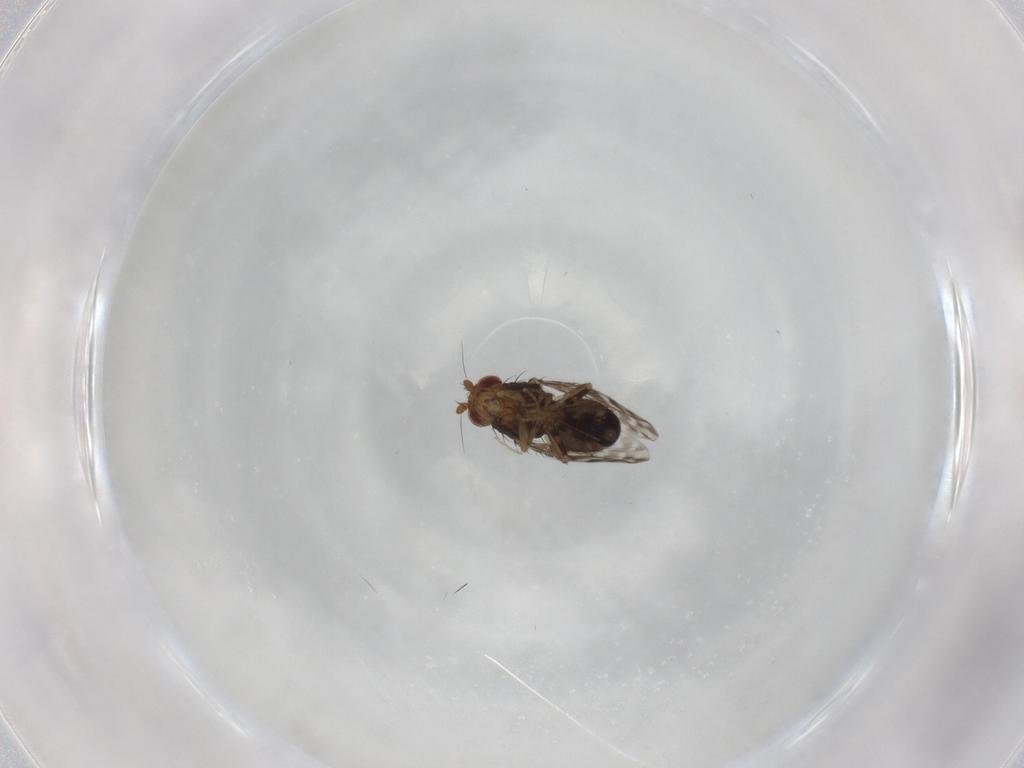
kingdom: Animalia
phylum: Arthropoda
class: Insecta
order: Diptera
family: Sphaeroceridae
